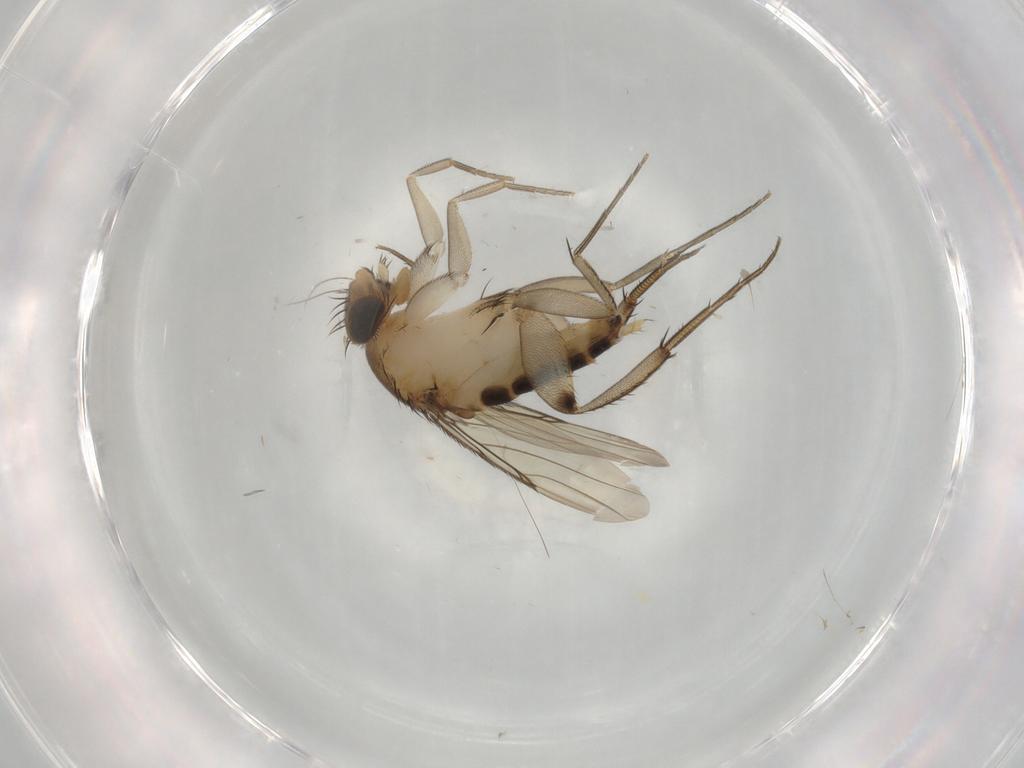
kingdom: Animalia
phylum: Arthropoda
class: Insecta
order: Diptera
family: Phoridae
